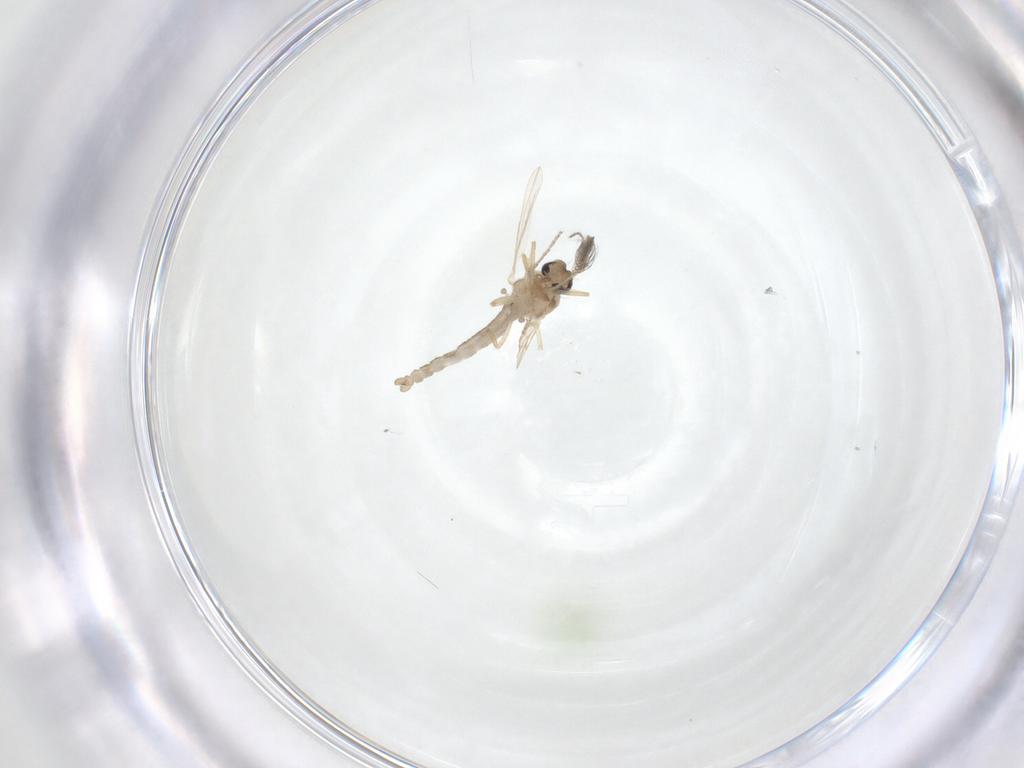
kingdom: Animalia
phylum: Arthropoda
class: Insecta
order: Diptera
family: Ceratopogonidae
